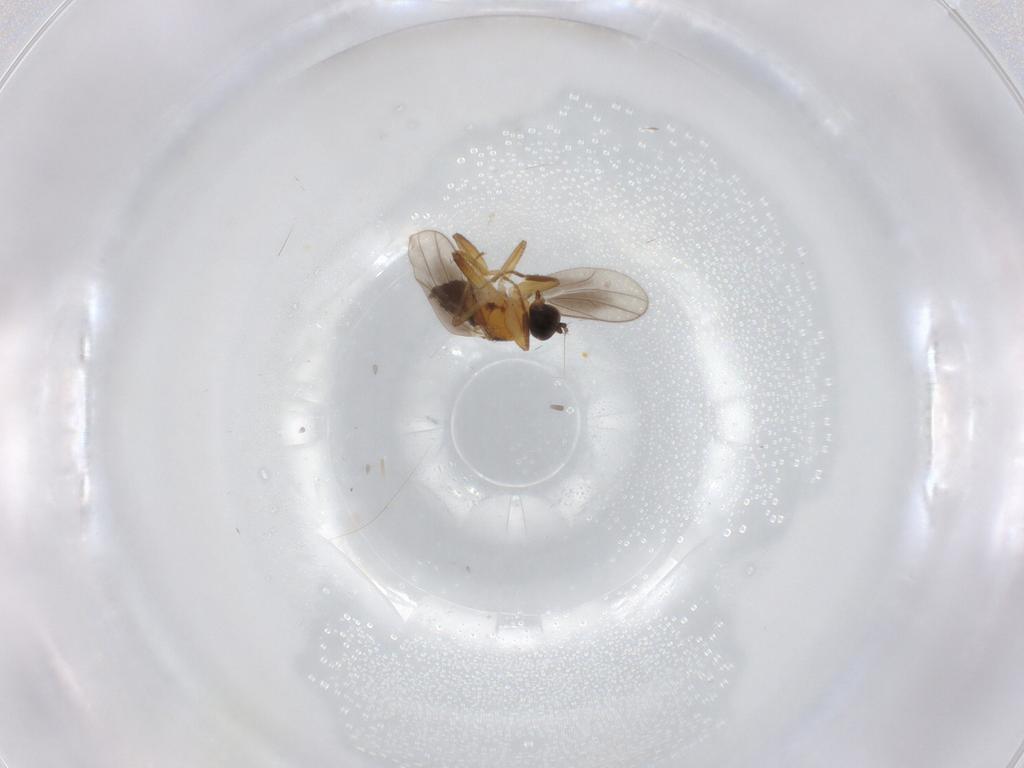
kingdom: Animalia
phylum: Arthropoda
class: Insecta
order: Diptera
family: Hybotidae
